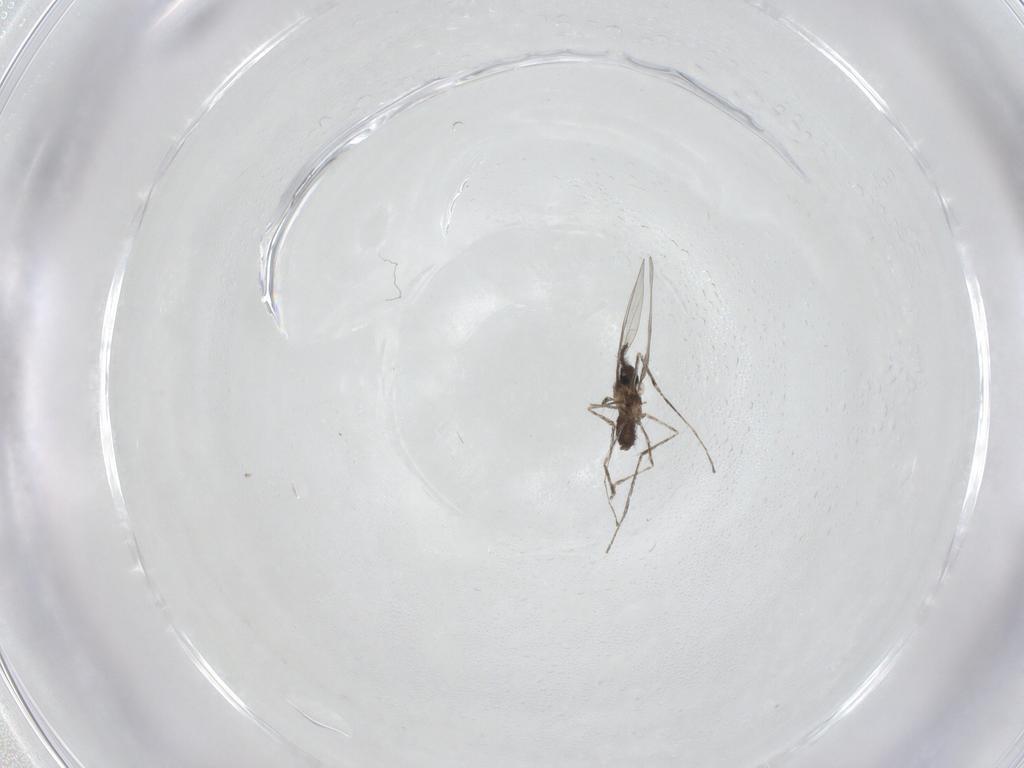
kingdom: Animalia
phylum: Arthropoda
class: Insecta
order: Diptera
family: Cecidomyiidae
